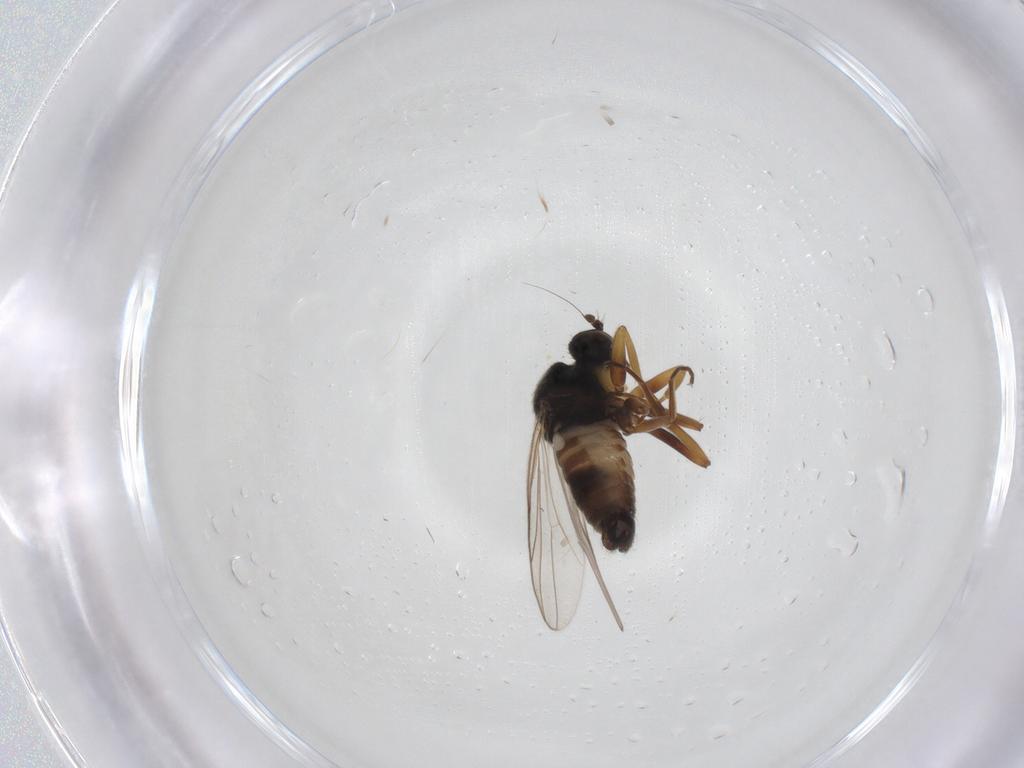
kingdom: Animalia
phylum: Arthropoda
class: Insecta
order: Diptera
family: Hybotidae
